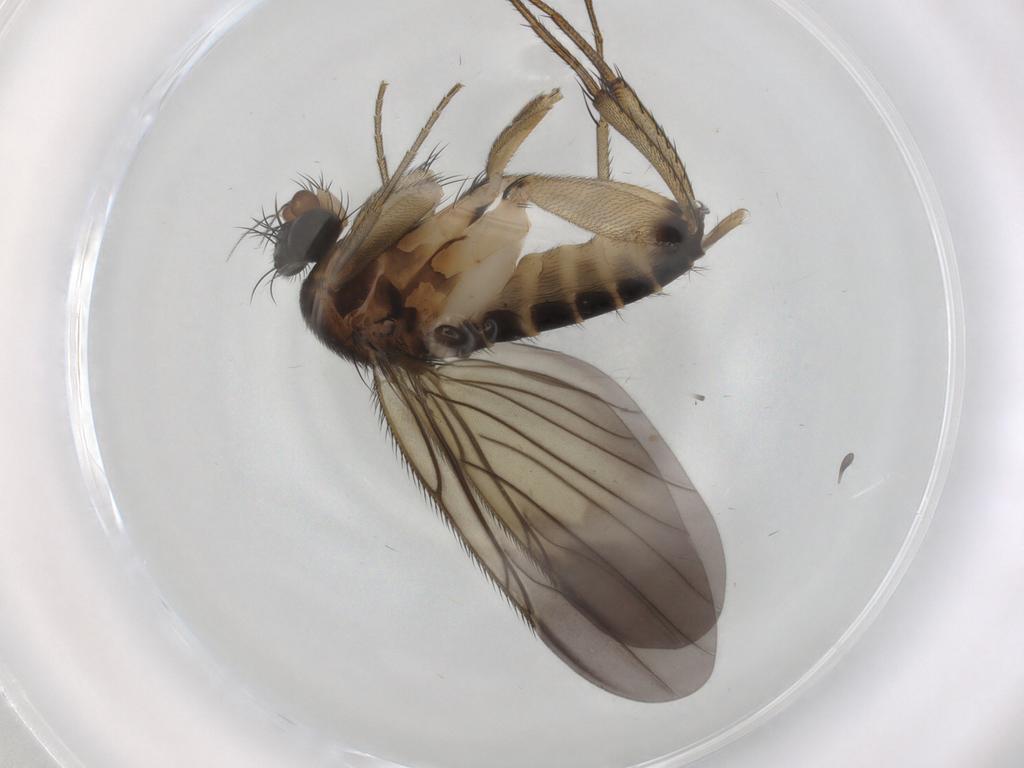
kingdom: Animalia
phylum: Arthropoda
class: Insecta
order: Diptera
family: Phoridae
